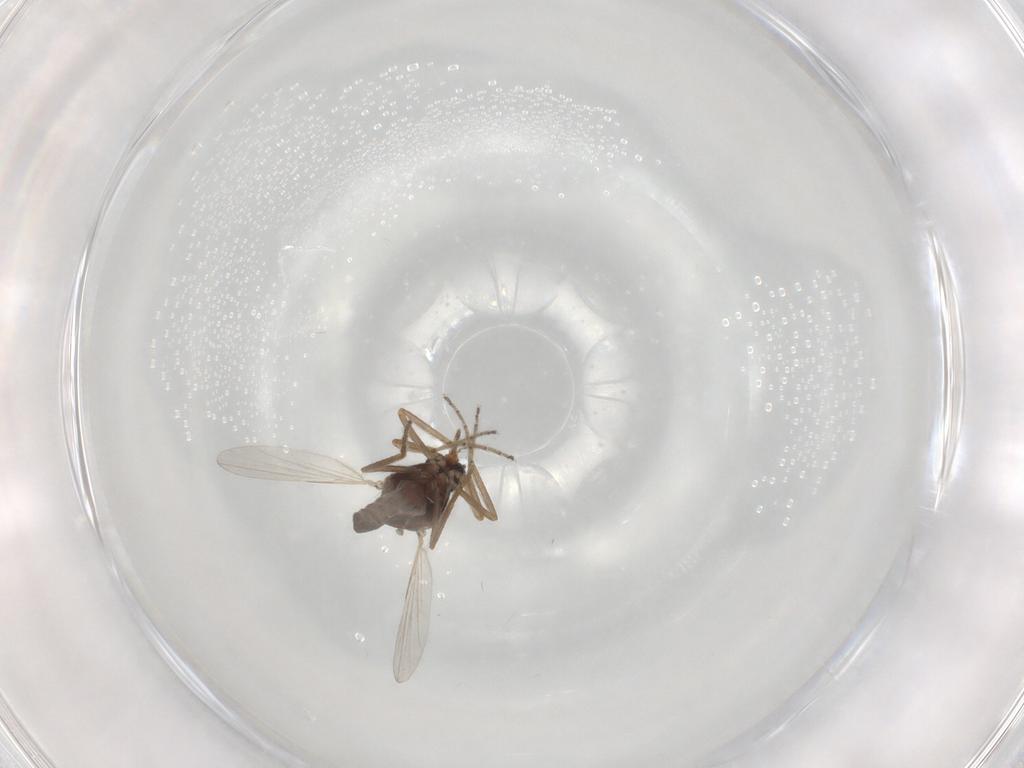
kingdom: Animalia
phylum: Arthropoda
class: Insecta
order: Diptera
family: Ceratopogonidae
